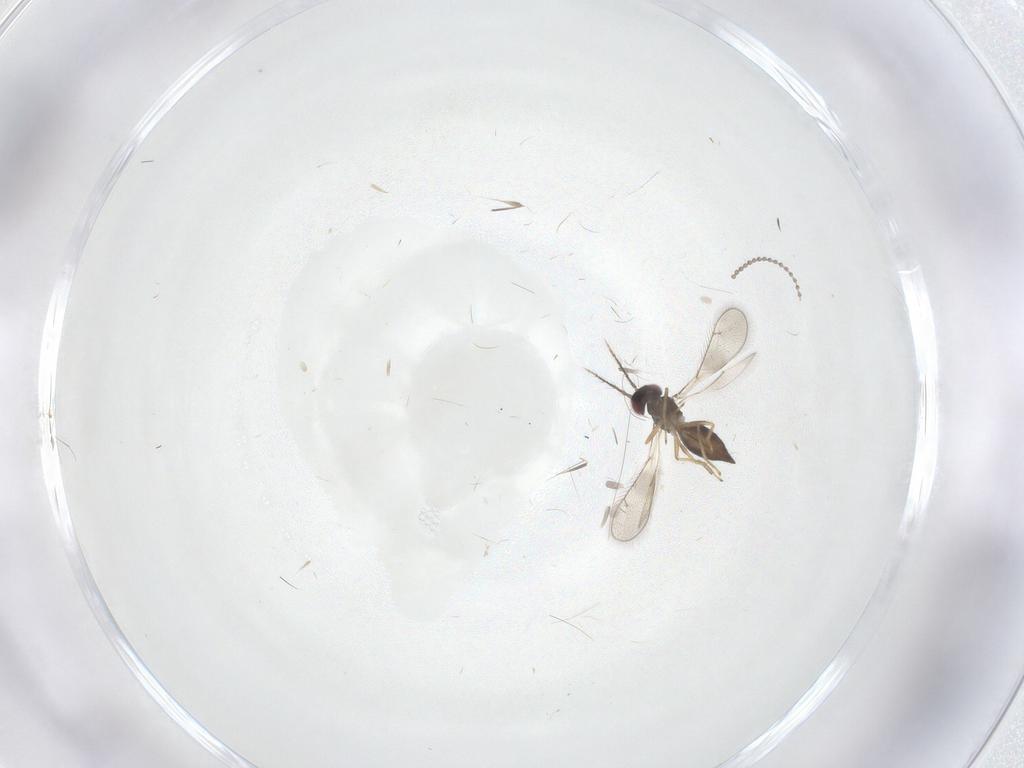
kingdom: Animalia
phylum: Arthropoda
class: Insecta
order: Hymenoptera
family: Eulophidae
